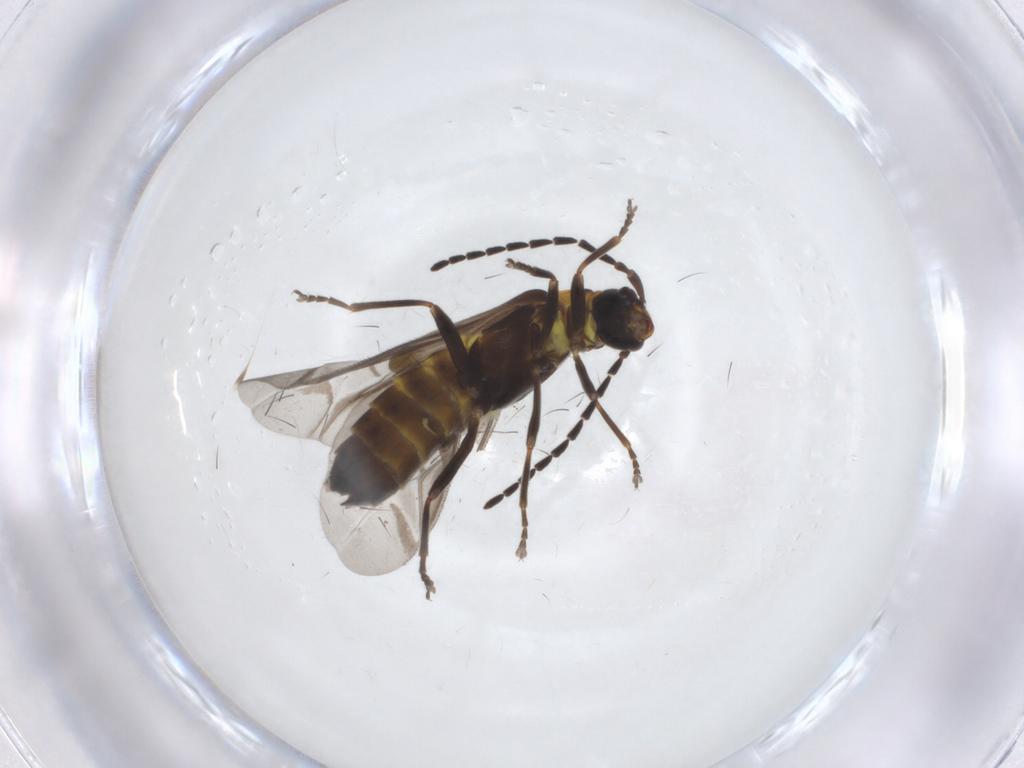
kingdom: Animalia
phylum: Arthropoda
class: Insecta
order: Coleoptera
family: Cantharidae
